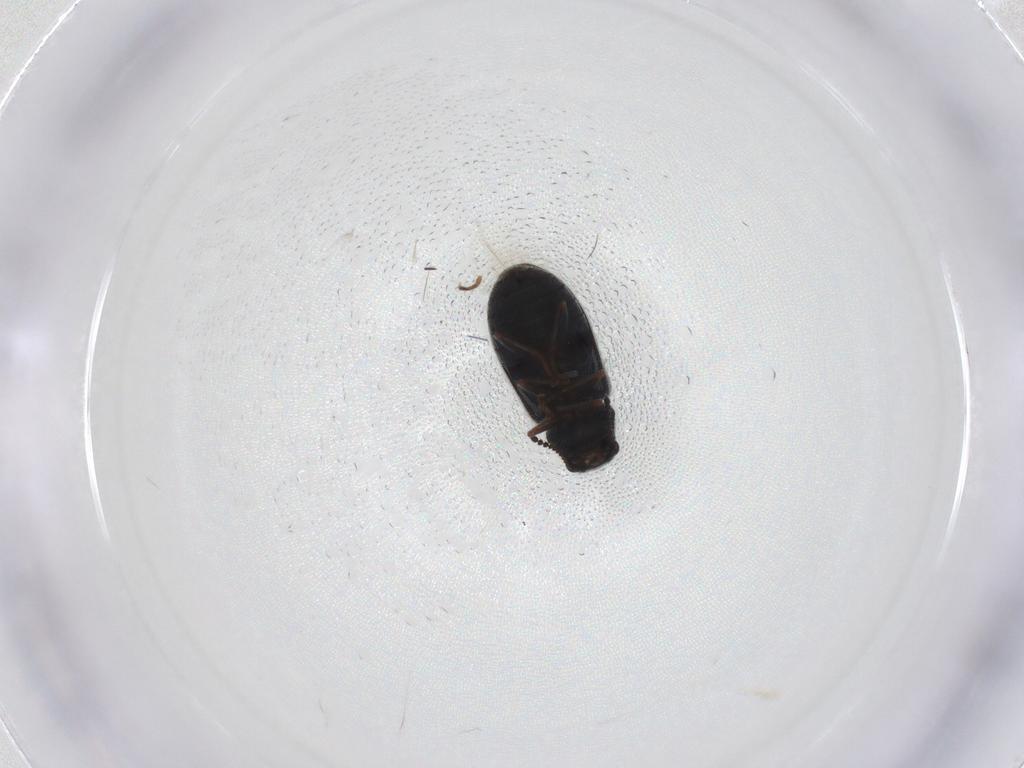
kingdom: Animalia
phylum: Arthropoda
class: Insecta
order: Coleoptera
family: Melyridae
